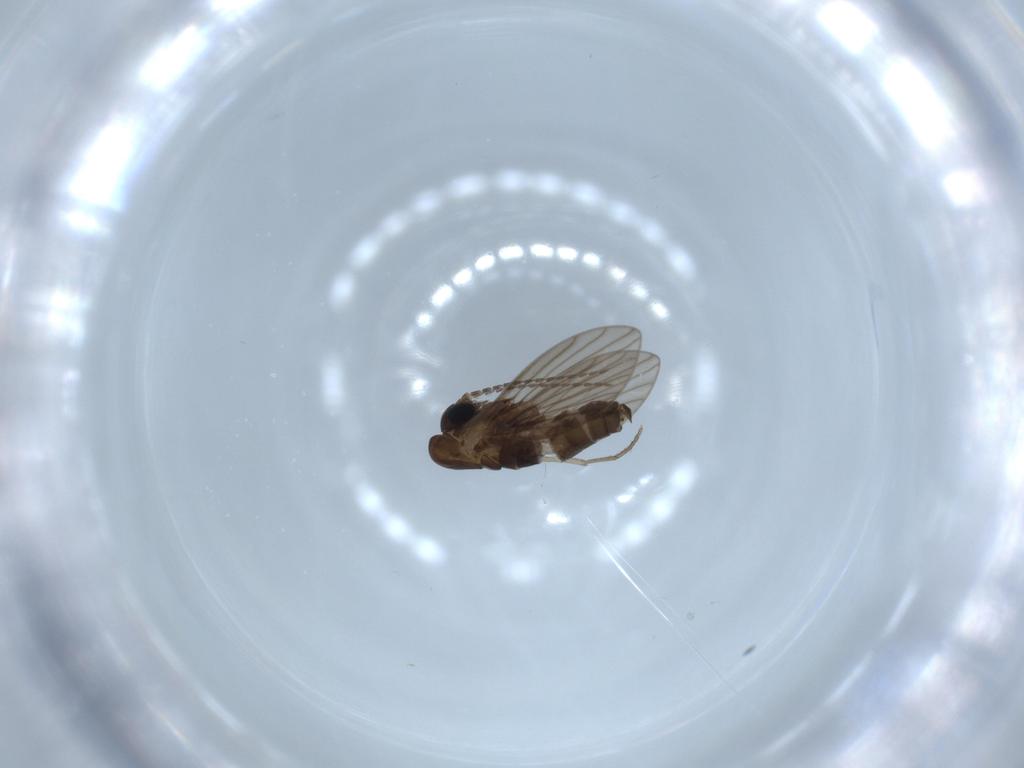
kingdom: Animalia
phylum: Arthropoda
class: Insecta
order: Diptera
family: Psychodidae
